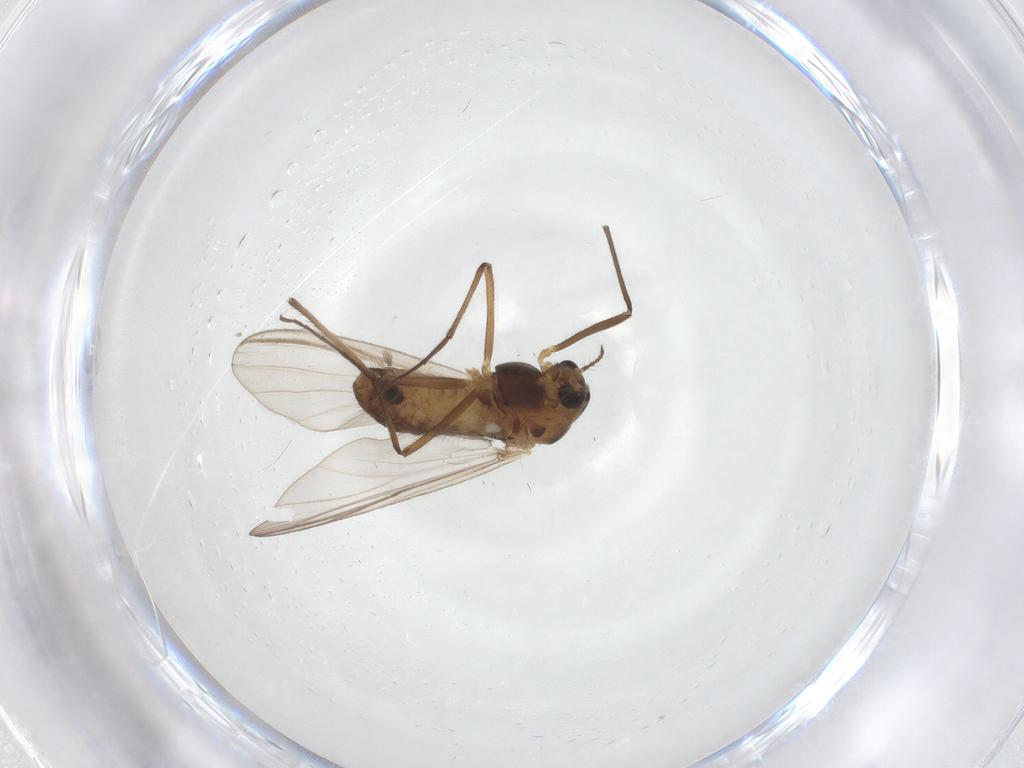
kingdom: Animalia
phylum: Arthropoda
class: Insecta
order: Diptera
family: Chironomidae
